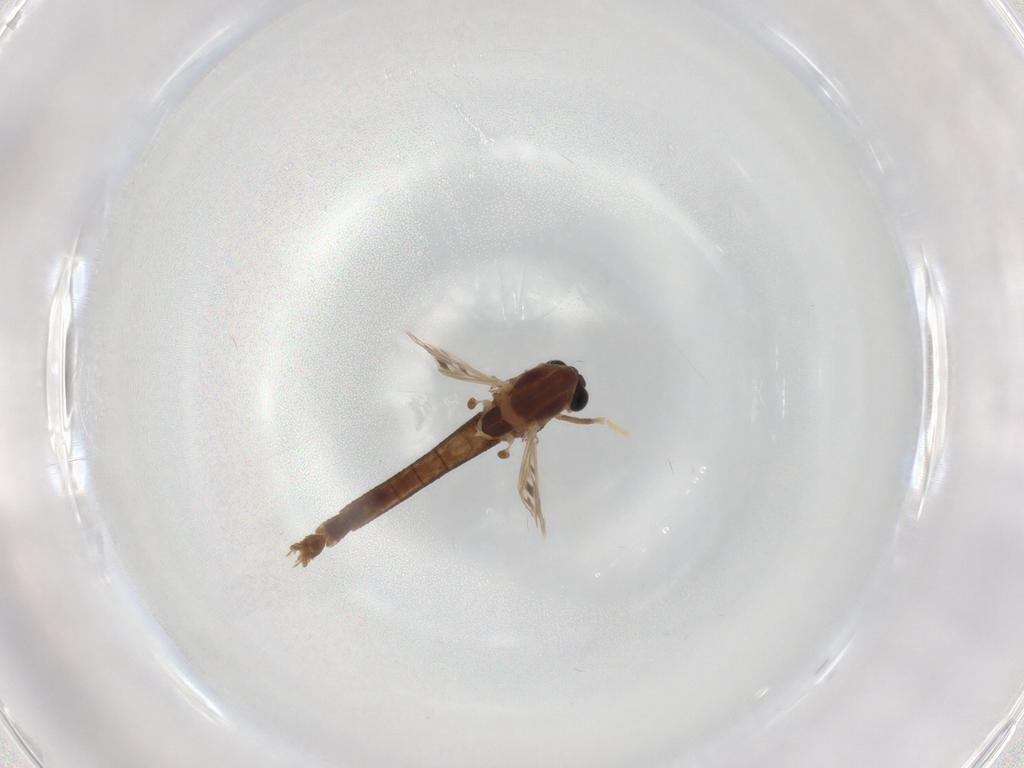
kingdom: Animalia
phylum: Arthropoda
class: Insecta
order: Diptera
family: Chironomidae
